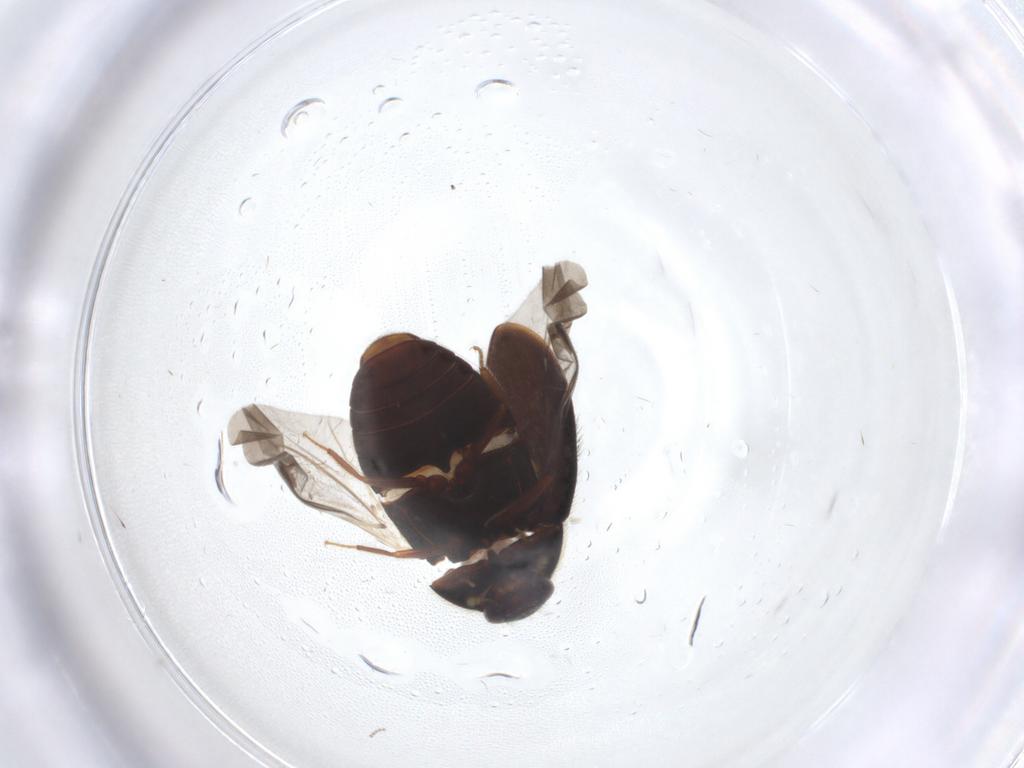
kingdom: Animalia
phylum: Arthropoda
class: Insecta
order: Coleoptera
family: Dermestidae
